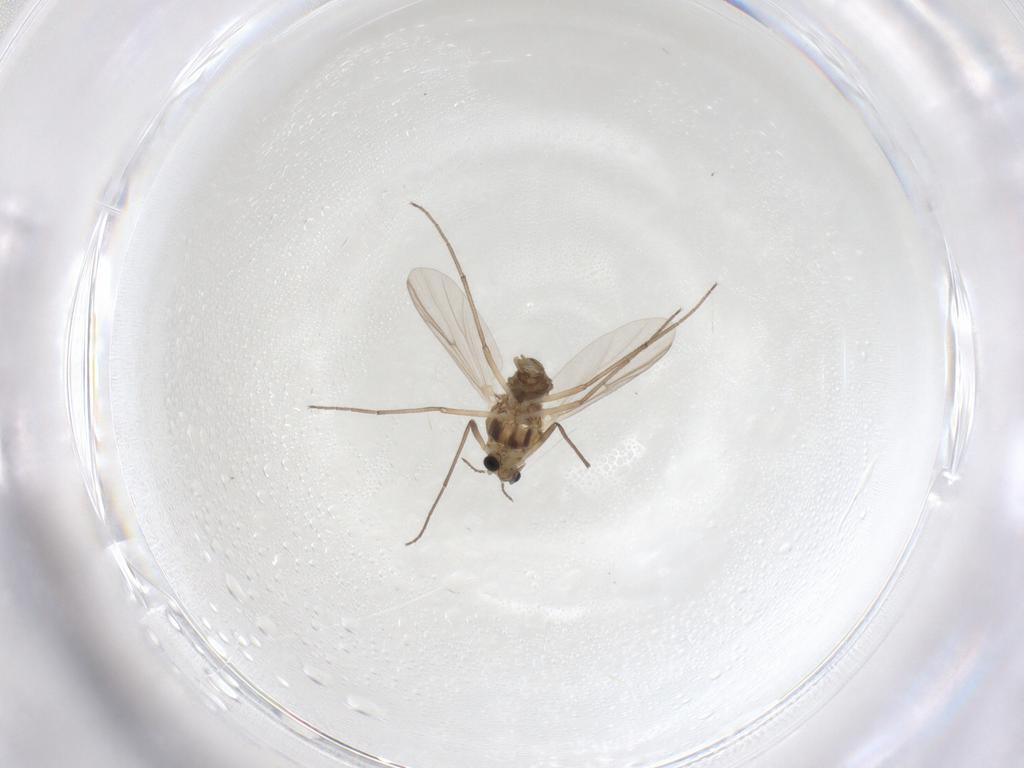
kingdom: Animalia
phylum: Arthropoda
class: Insecta
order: Diptera
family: Chironomidae
